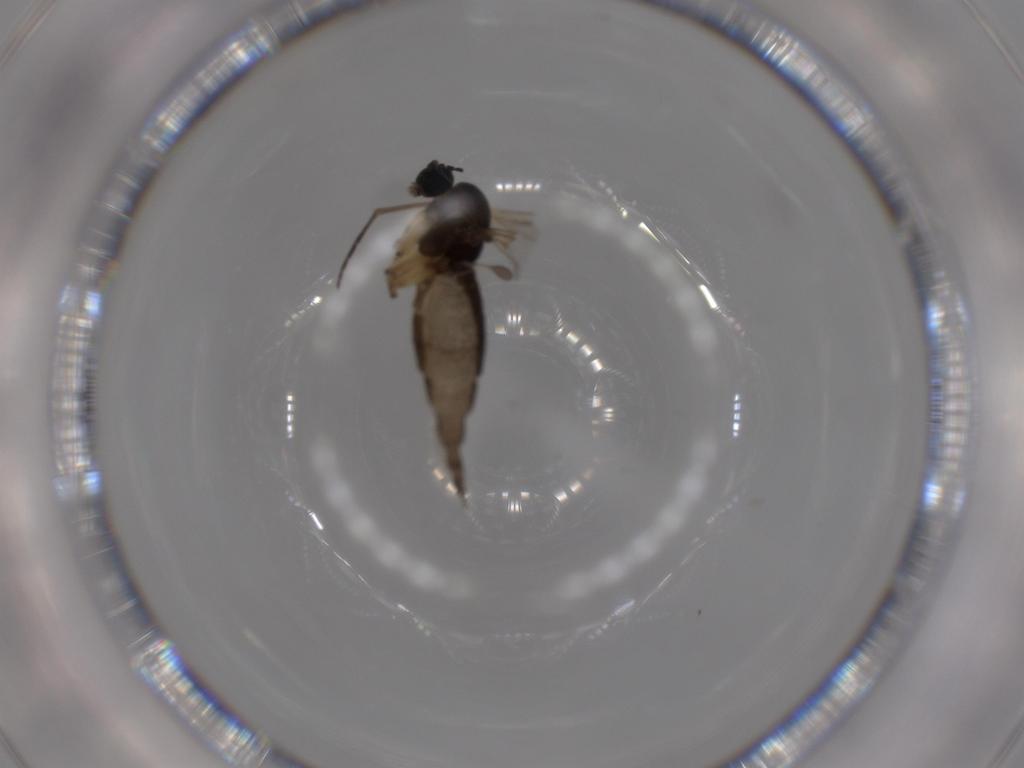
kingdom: Animalia
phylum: Arthropoda
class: Insecta
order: Diptera
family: Sciaridae
